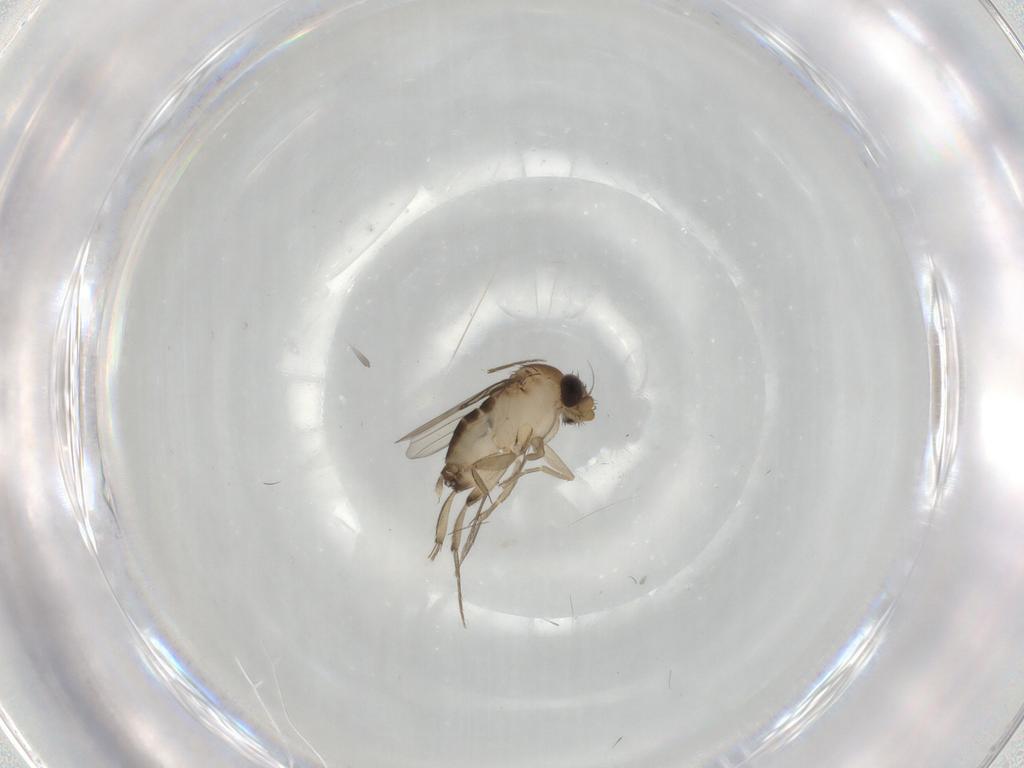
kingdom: Animalia
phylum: Arthropoda
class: Insecta
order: Diptera
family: Phoridae
